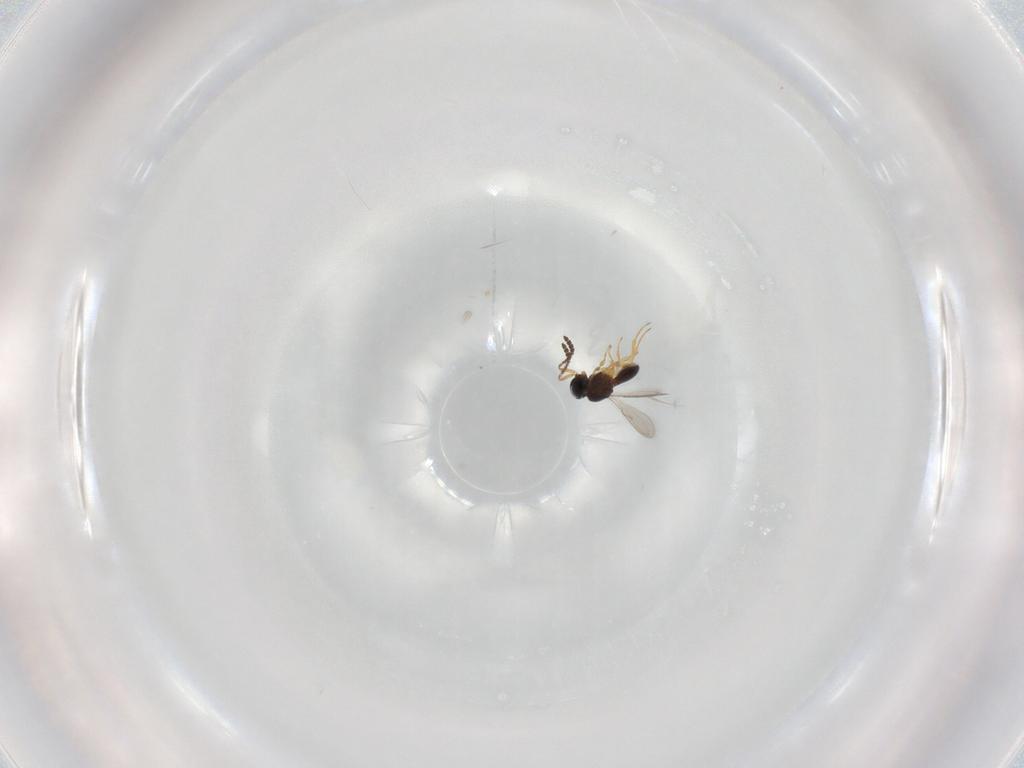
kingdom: Animalia
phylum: Arthropoda
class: Insecta
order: Hymenoptera
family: Scelionidae
